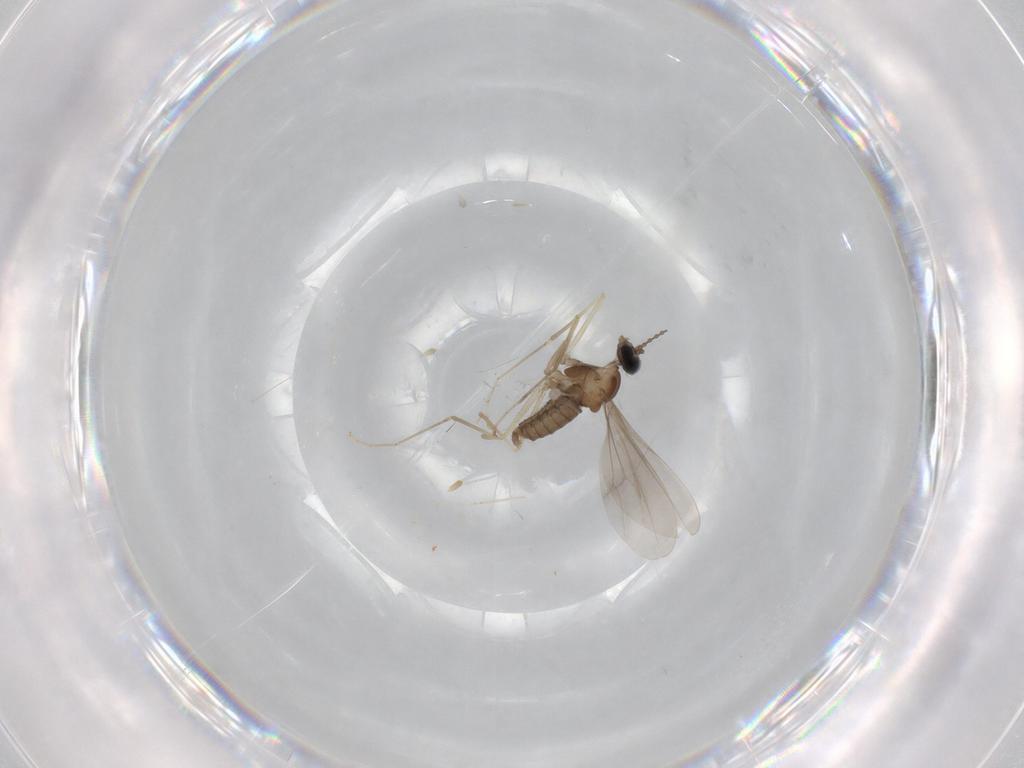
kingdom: Animalia
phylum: Arthropoda
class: Insecta
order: Diptera
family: Cecidomyiidae
